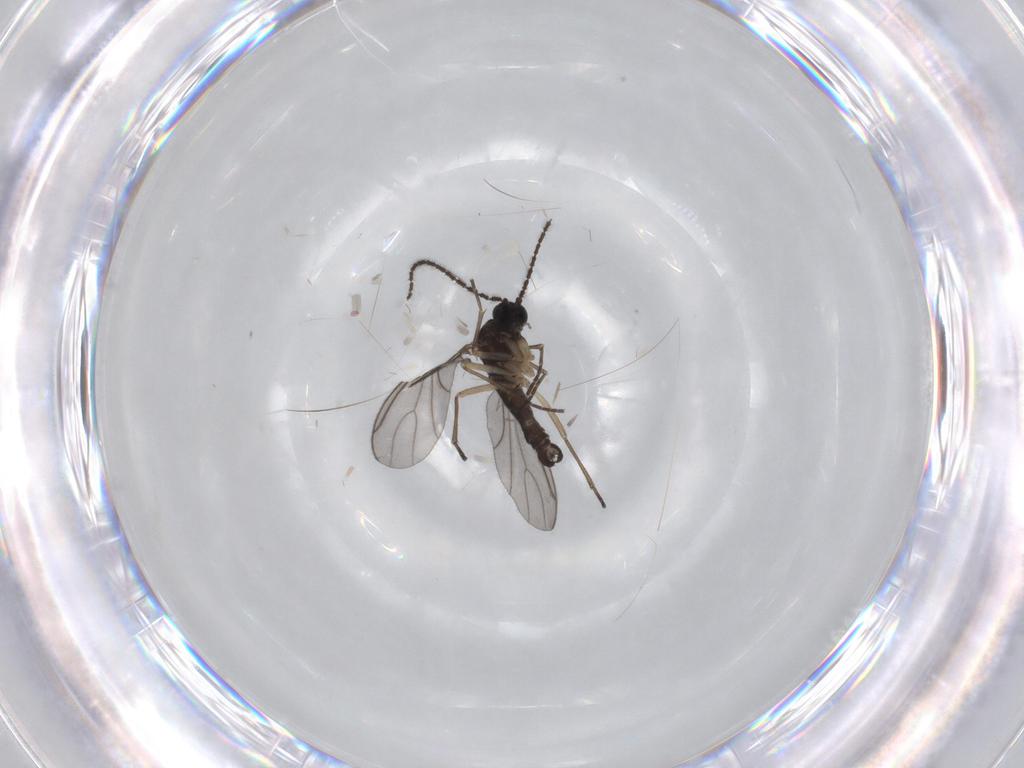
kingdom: Animalia
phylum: Arthropoda
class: Insecta
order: Diptera
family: Sciaridae
